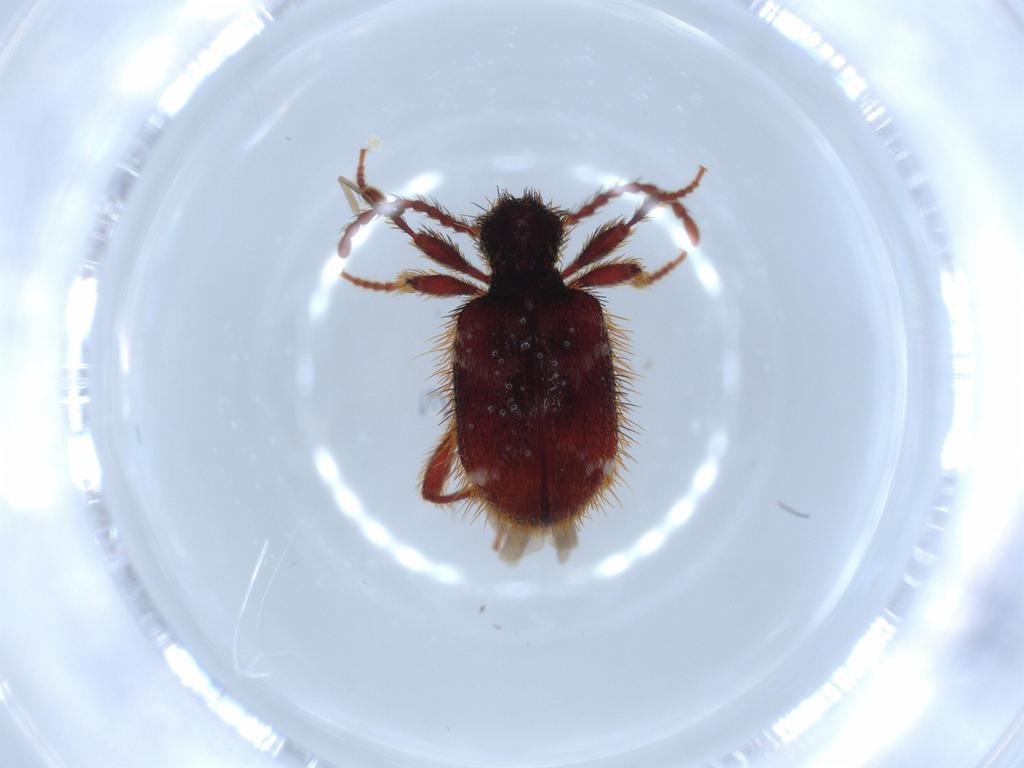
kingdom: Animalia
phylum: Arthropoda
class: Insecta
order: Coleoptera
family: Ptinidae
